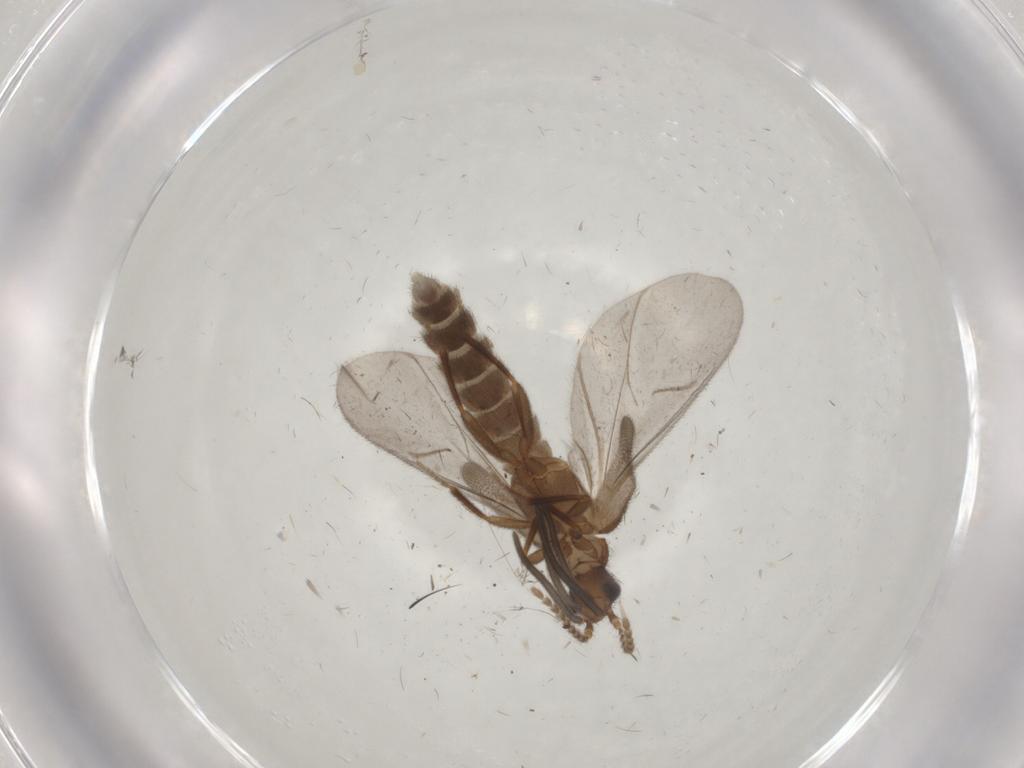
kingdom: Animalia
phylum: Arthropoda
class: Insecta
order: Coleoptera
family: Omethidae
